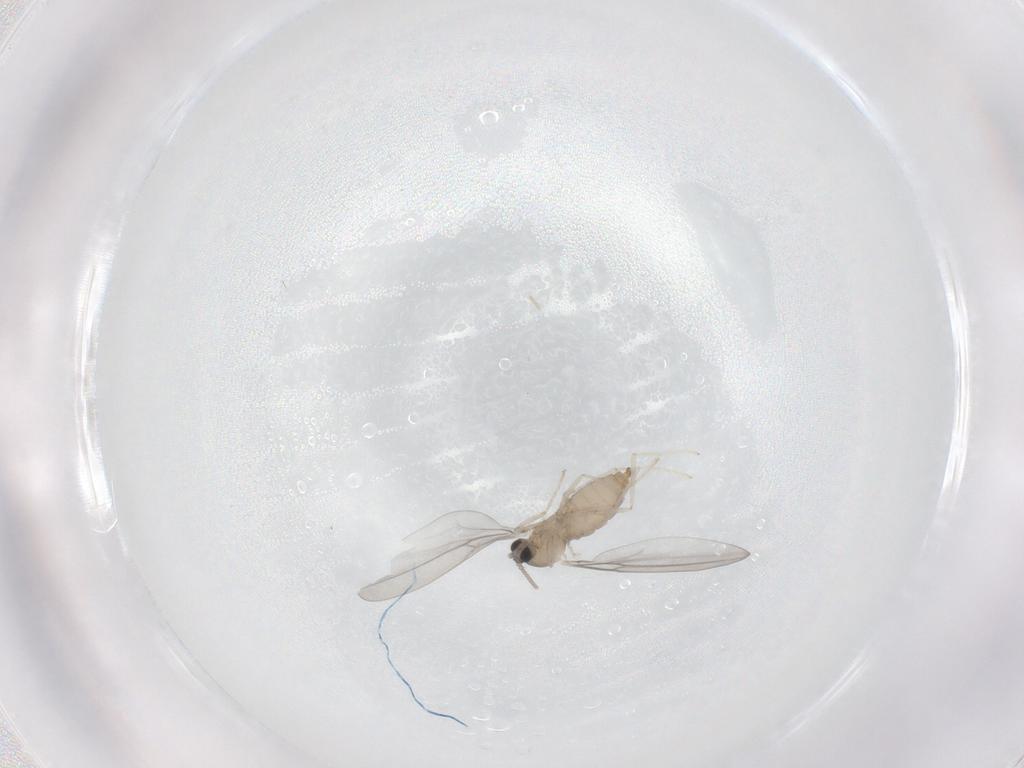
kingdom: Animalia
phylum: Arthropoda
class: Insecta
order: Diptera
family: Cecidomyiidae
